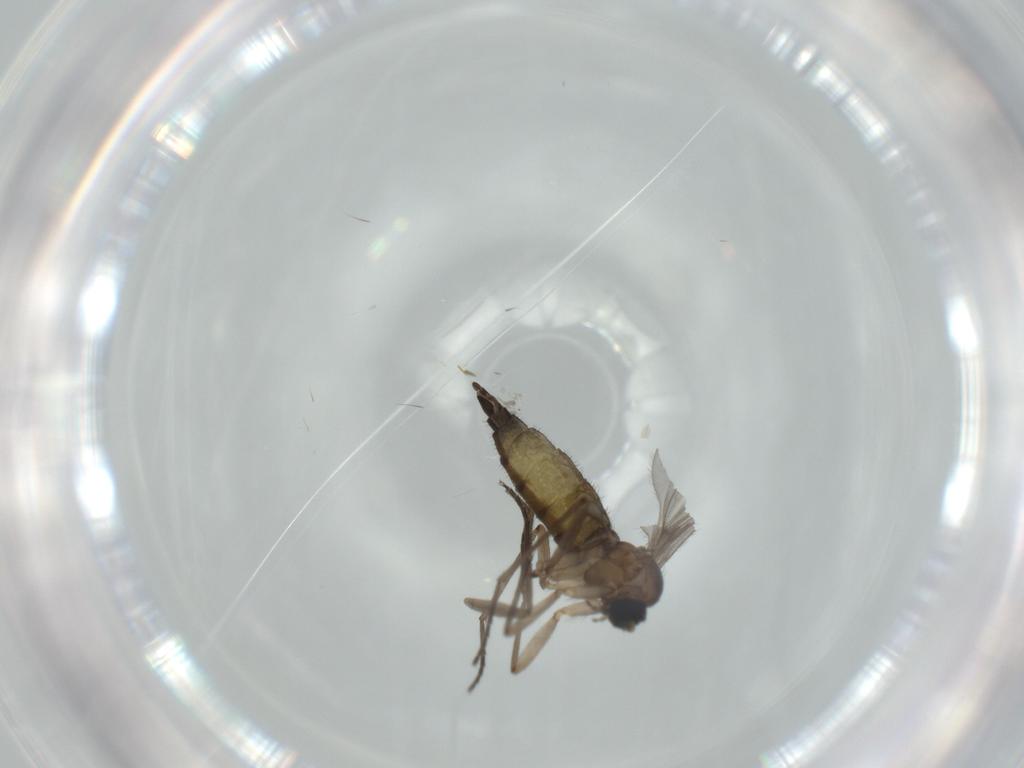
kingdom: Animalia
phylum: Arthropoda
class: Insecta
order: Diptera
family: Sciaridae
